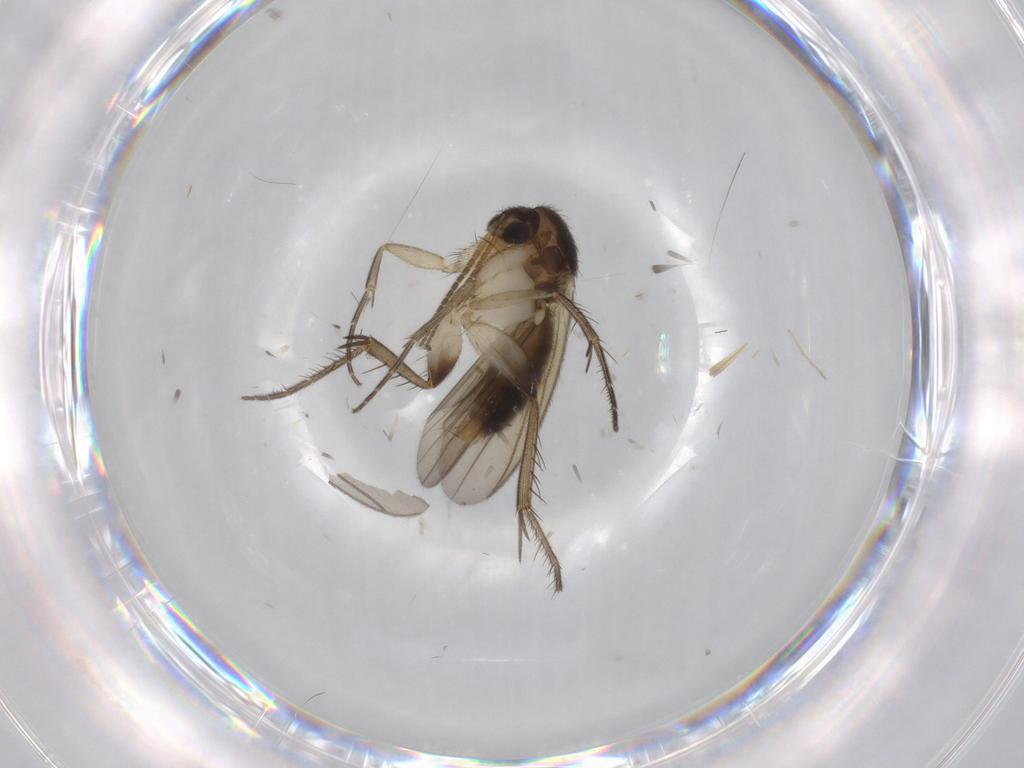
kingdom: Animalia
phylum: Arthropoda
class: Insecta
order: Diptera
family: Mycetophilidae
